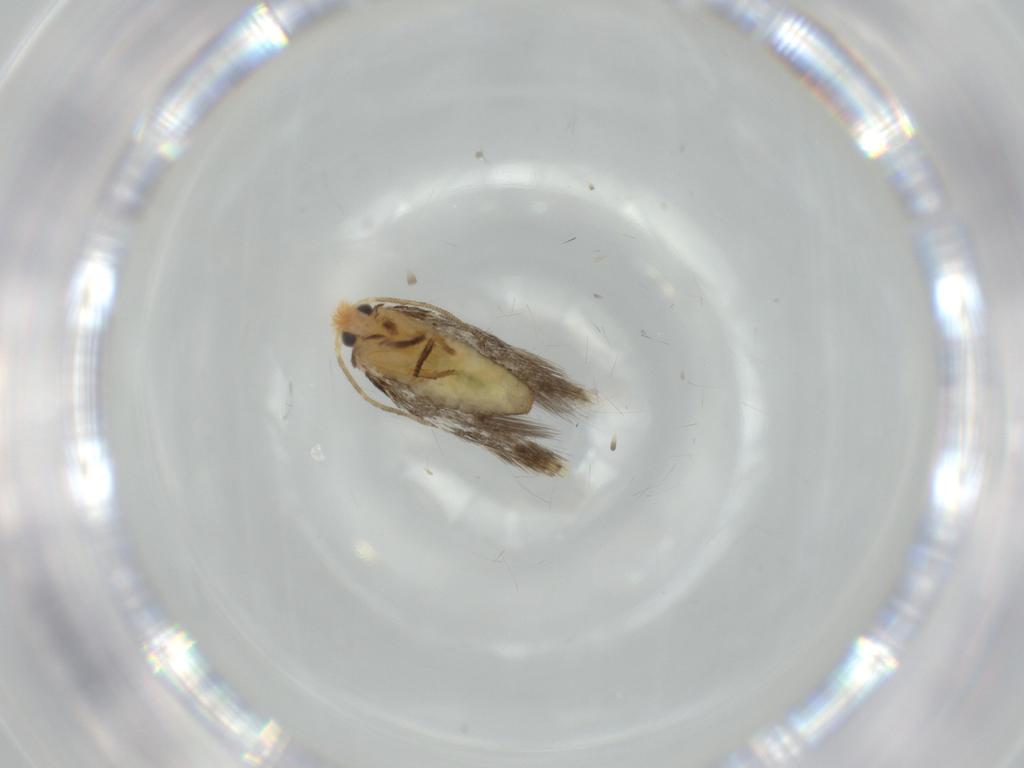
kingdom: Animalia
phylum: Arthropoda
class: Insecta
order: Lepidoptera
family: Nepticulidae
